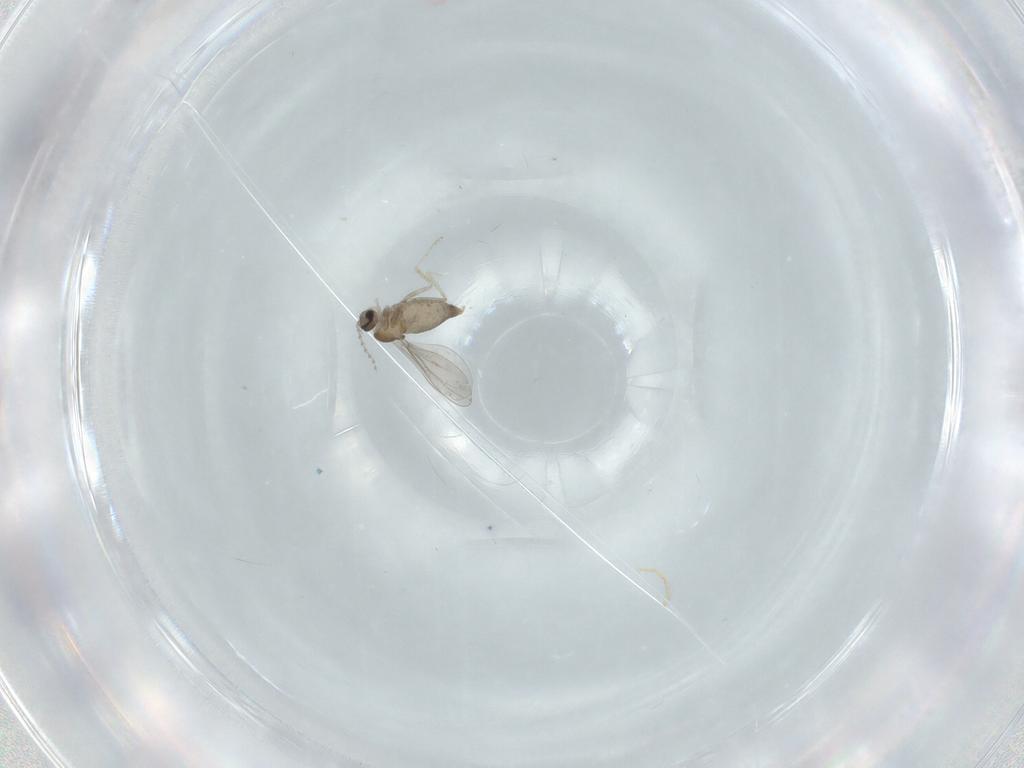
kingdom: Animalia
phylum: Arthropoda
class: Insecta
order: Diptera
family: Cecidomyiidae
